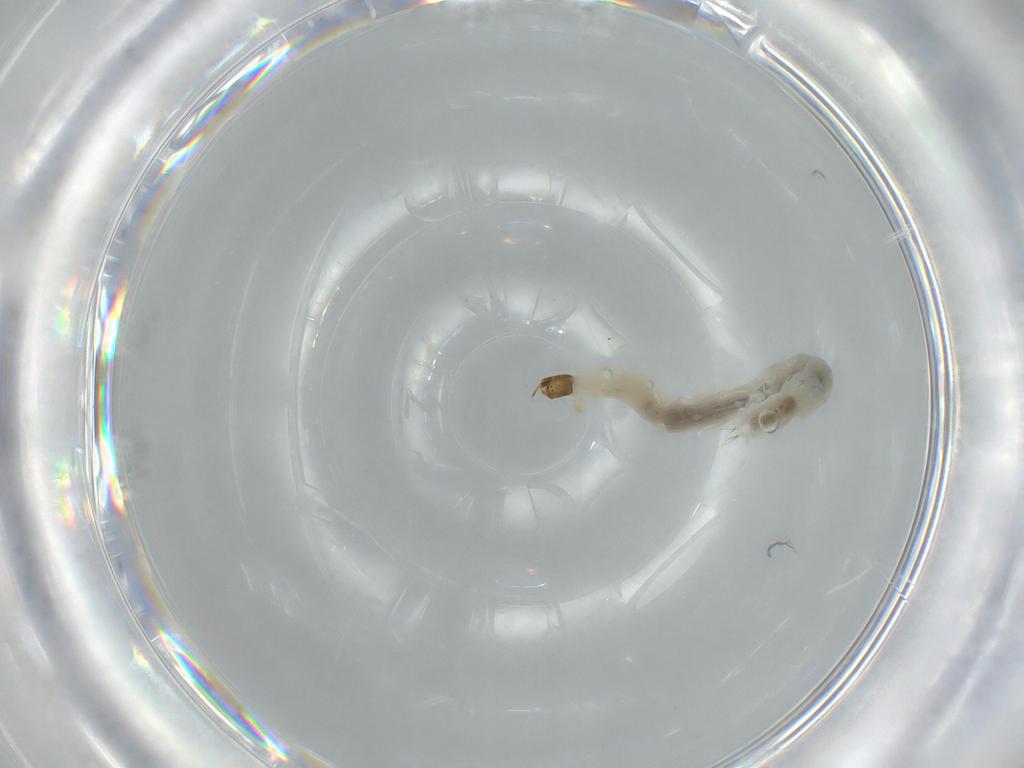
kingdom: Animalia
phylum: Arthropoda
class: Insecta
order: Diptera
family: Chironomidae
